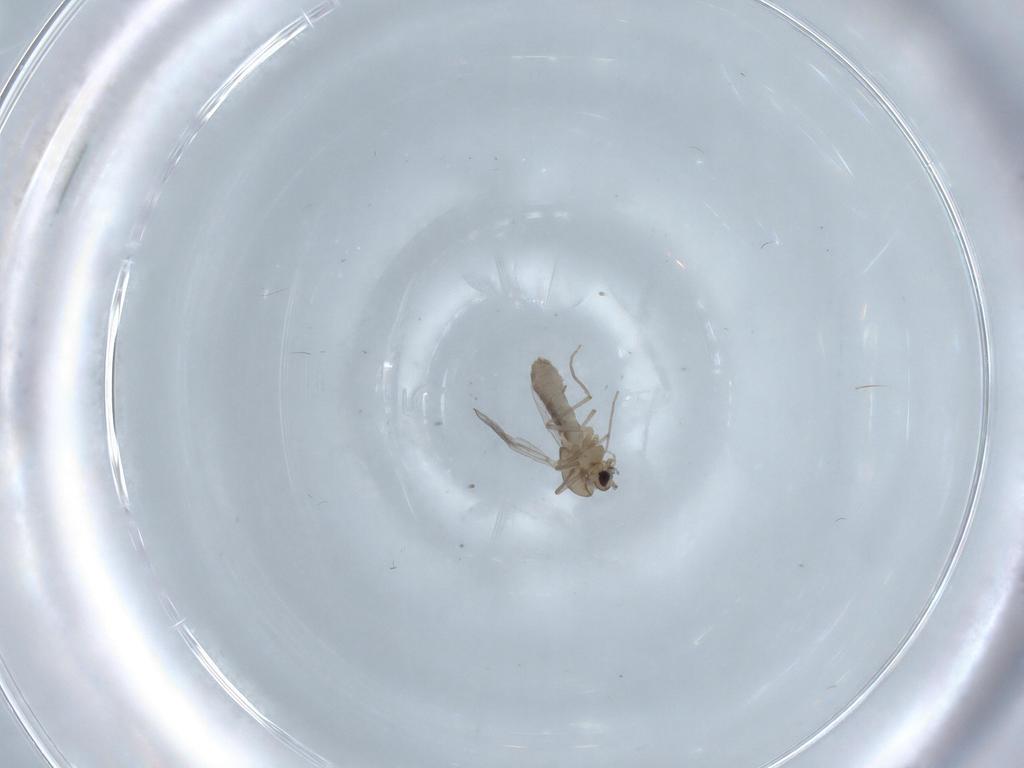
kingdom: Animalia
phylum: Arthropoda
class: Insecta
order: Diptera
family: Chironomidae
